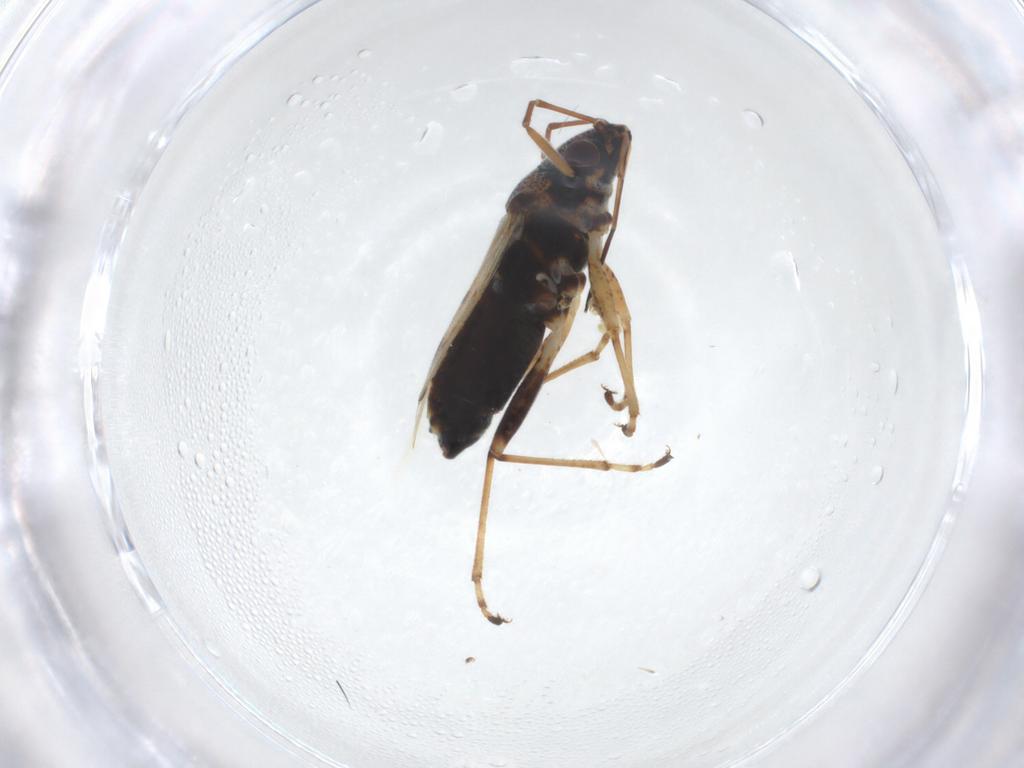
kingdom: Animalia
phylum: Arthropoda
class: Insecta
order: Hemiptera
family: Lygaeidae
